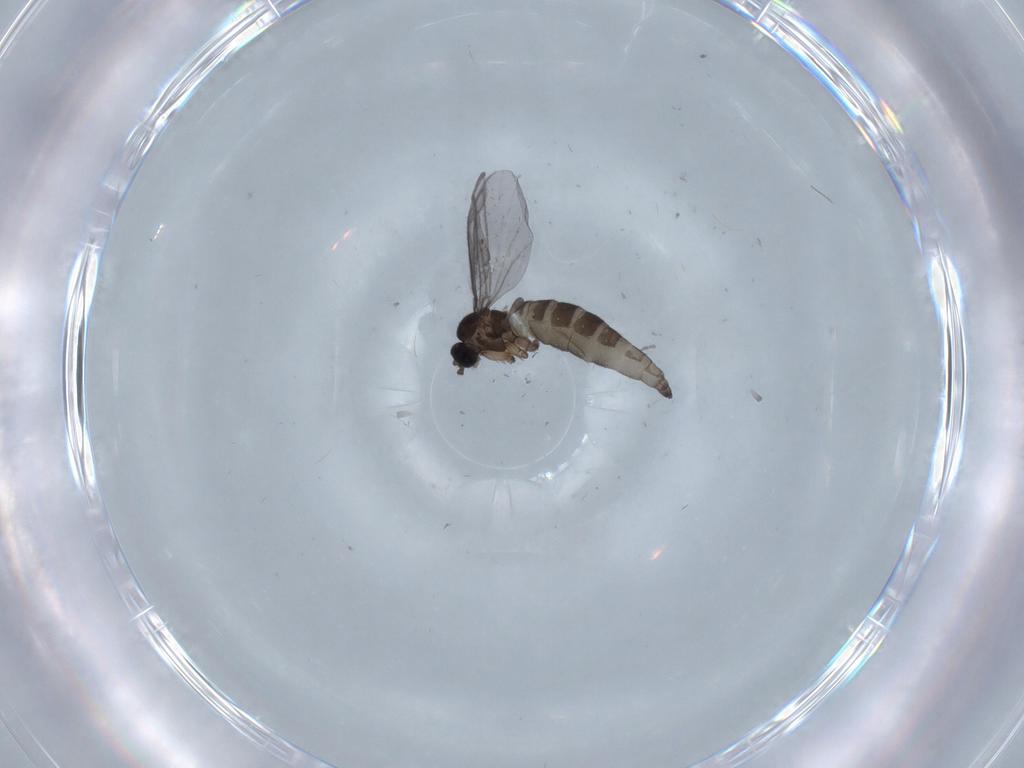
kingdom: Animalia
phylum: Arthropoda
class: Insecta
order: Diptera
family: Chironomidae
